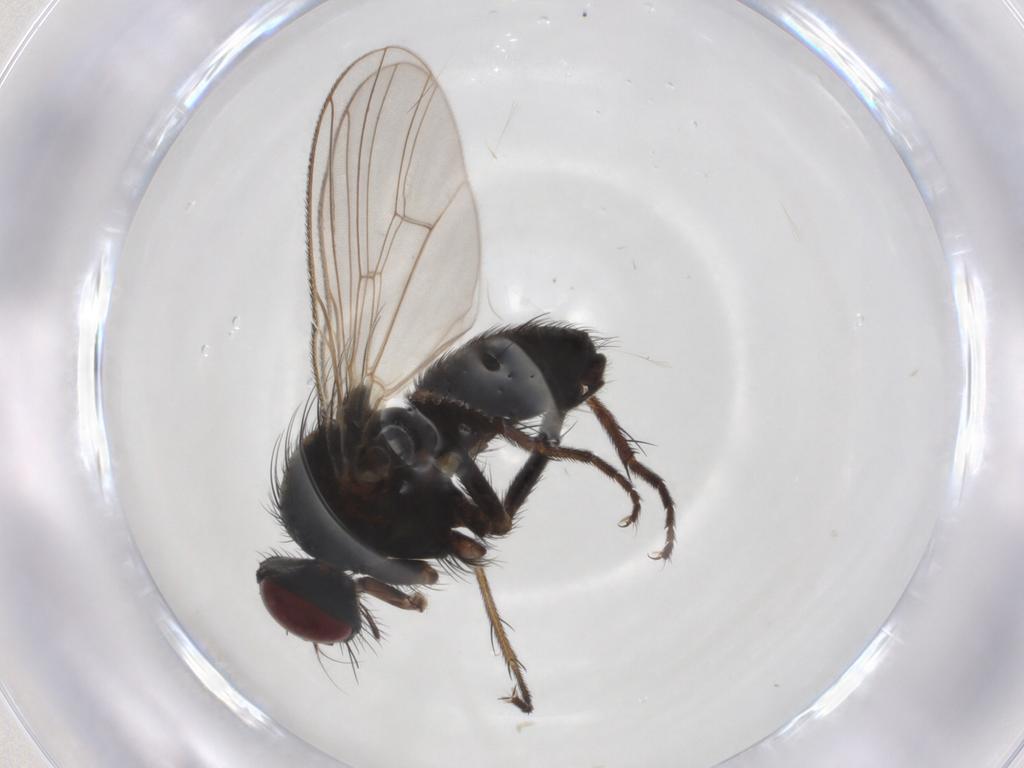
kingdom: Animalia
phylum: Arthropoda
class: Insecta
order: Diptera
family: Muscidae
